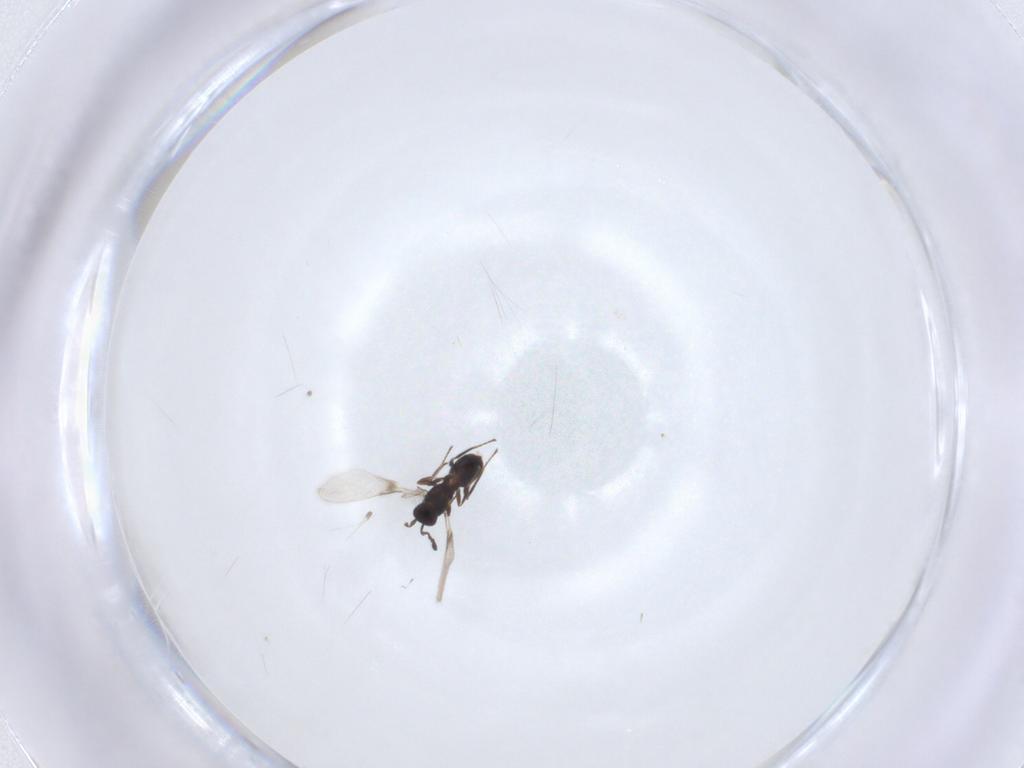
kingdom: Animalia
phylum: Arthropoda
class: Insecta
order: Hymenoptera
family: Mymaridae
